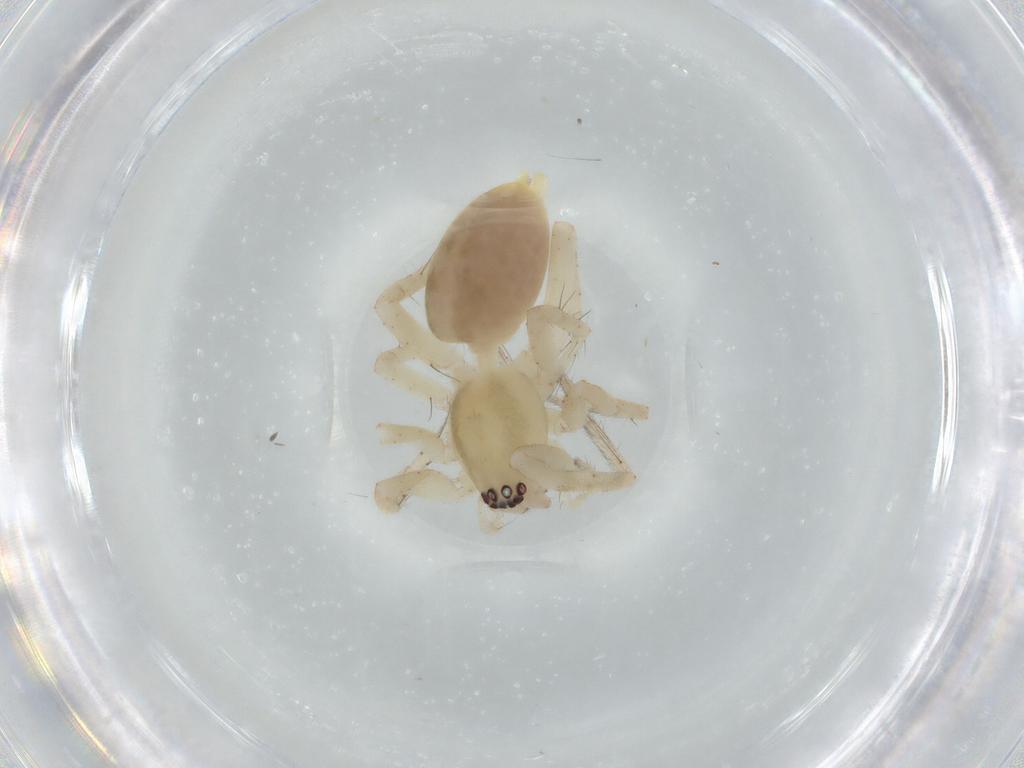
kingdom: Animalia
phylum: Arthropoda
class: Arachnida
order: Araneae
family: Anyphaenidae
